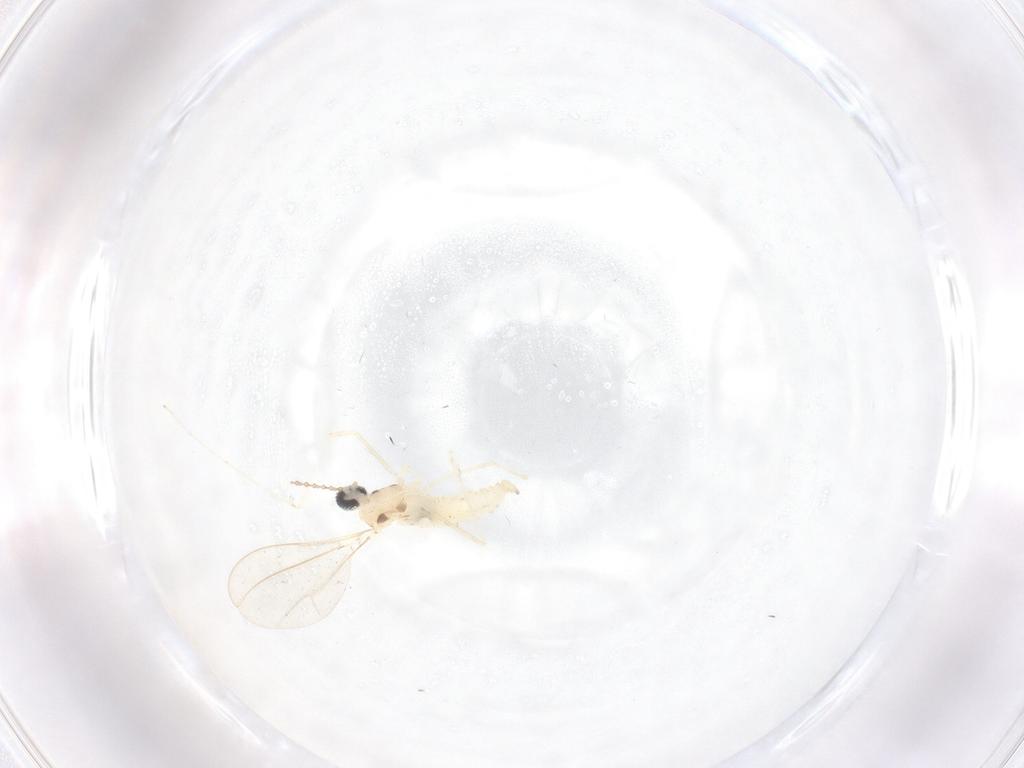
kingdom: Animalia
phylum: Arthropoda
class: Insecta
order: Diptera
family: Cecidomyiidae
